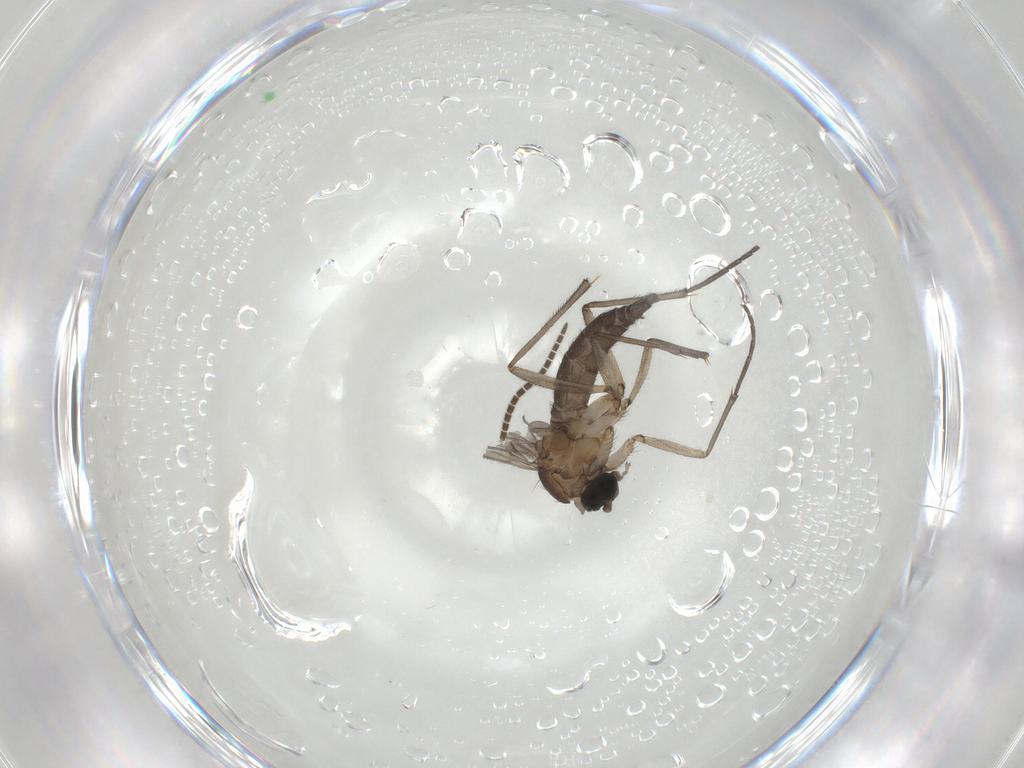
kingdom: Animalia
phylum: Arthropoda
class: Insecta
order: Diptera
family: Sciaridae
